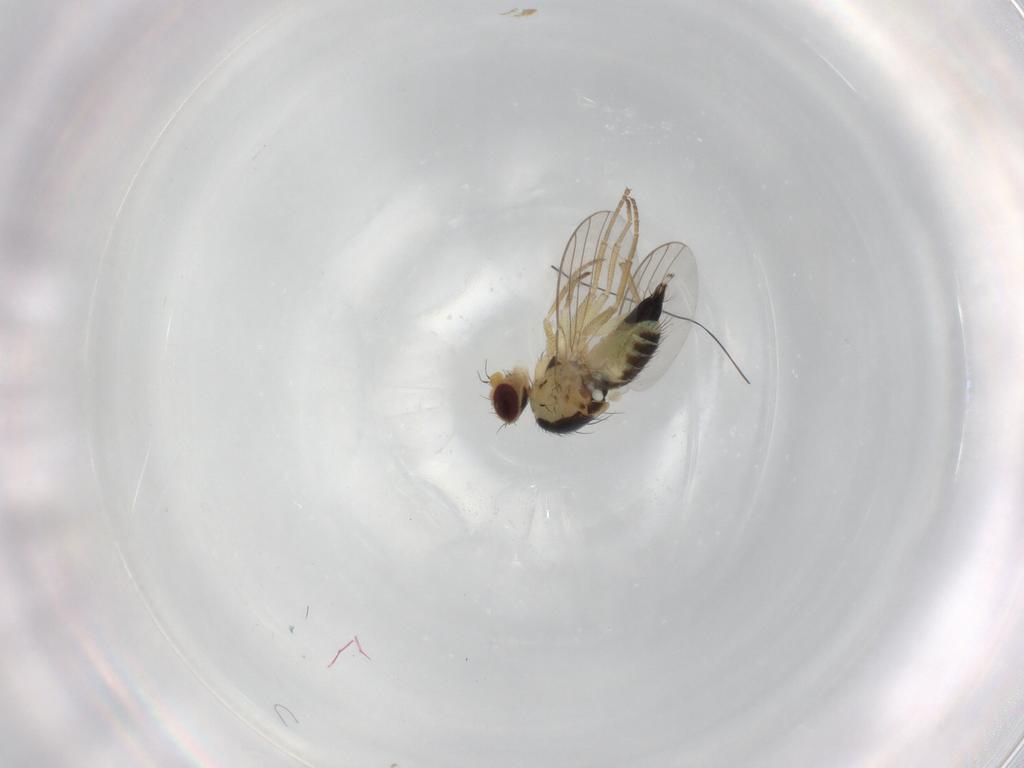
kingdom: Animalia
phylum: Arthropoda
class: Insecta
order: Diptera
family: Agromyzidae
